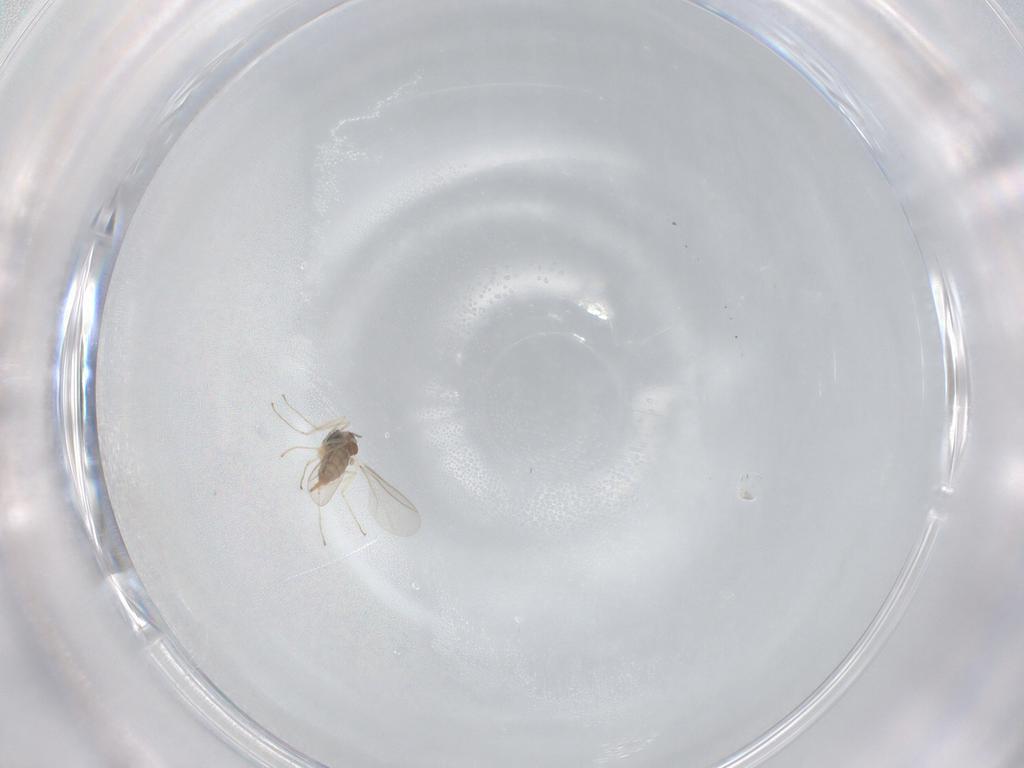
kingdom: Animalia
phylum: Arthropoda
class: Insecta
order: Diptera
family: Cecidomyiidae
